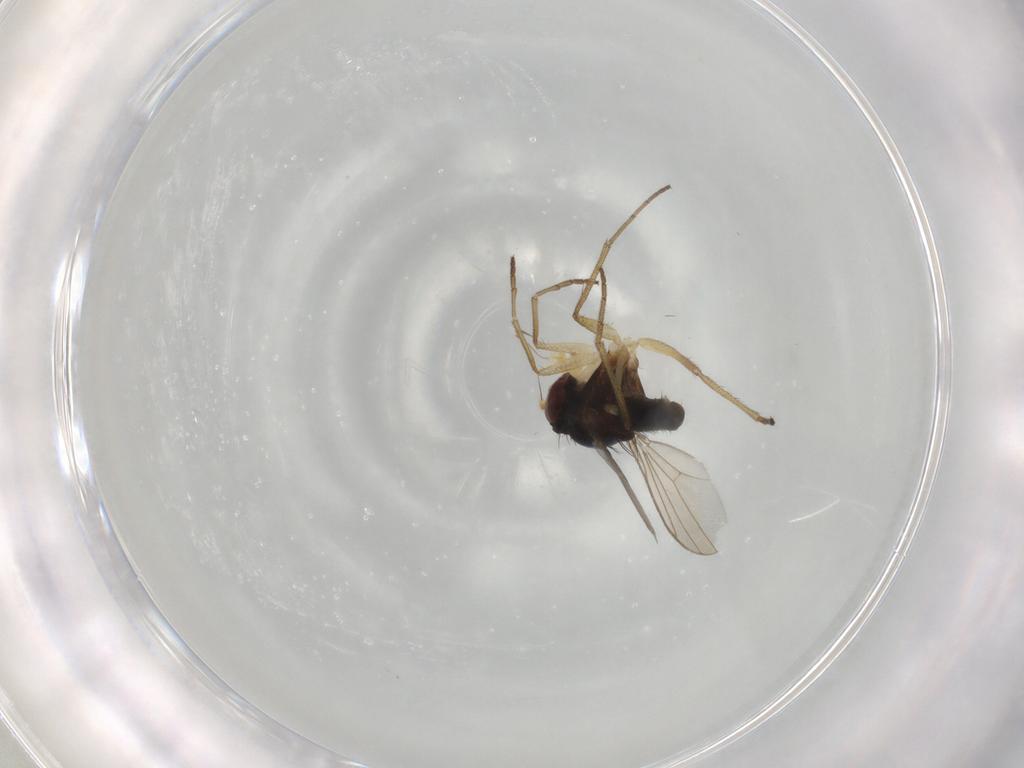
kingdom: Animalia
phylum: Arthropoda
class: Insecta
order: Diptera
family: Dolichopodidae
